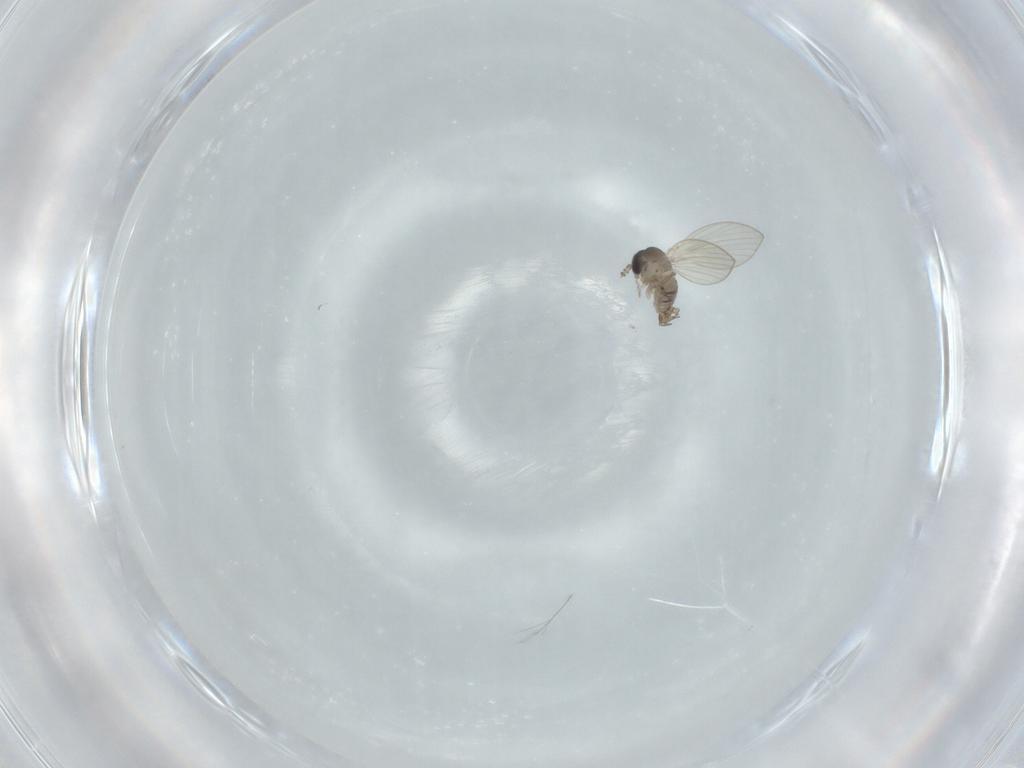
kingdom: Animalia
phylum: Arthropoda
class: Insecta
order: Diptera
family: Psychodidae
